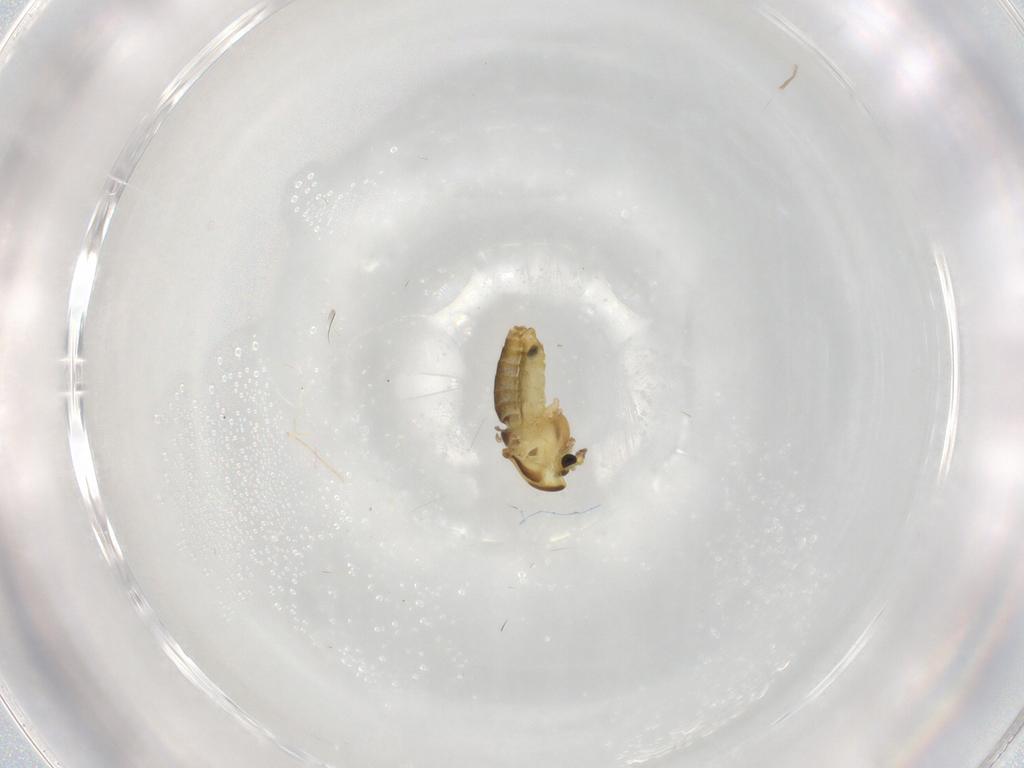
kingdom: Animalia
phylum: Arthropoda
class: Insecta
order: Diptera
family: Chironomidae
